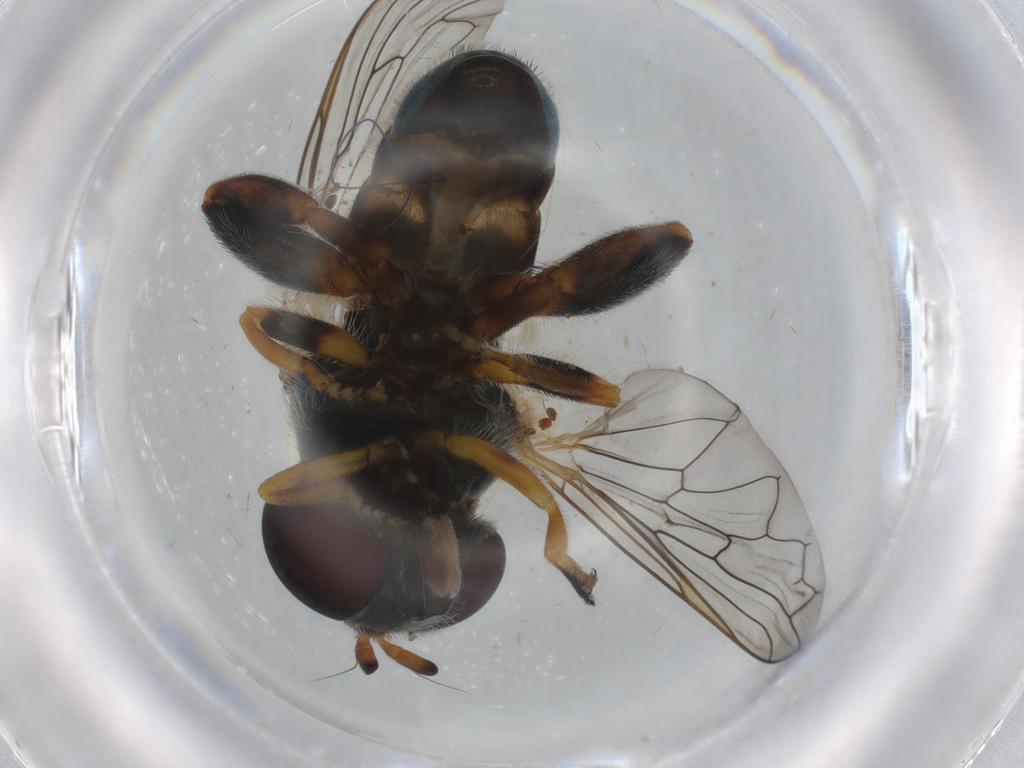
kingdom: Animalia
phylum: Arthropoda
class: Insecta
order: Diptera
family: Syrphidae
